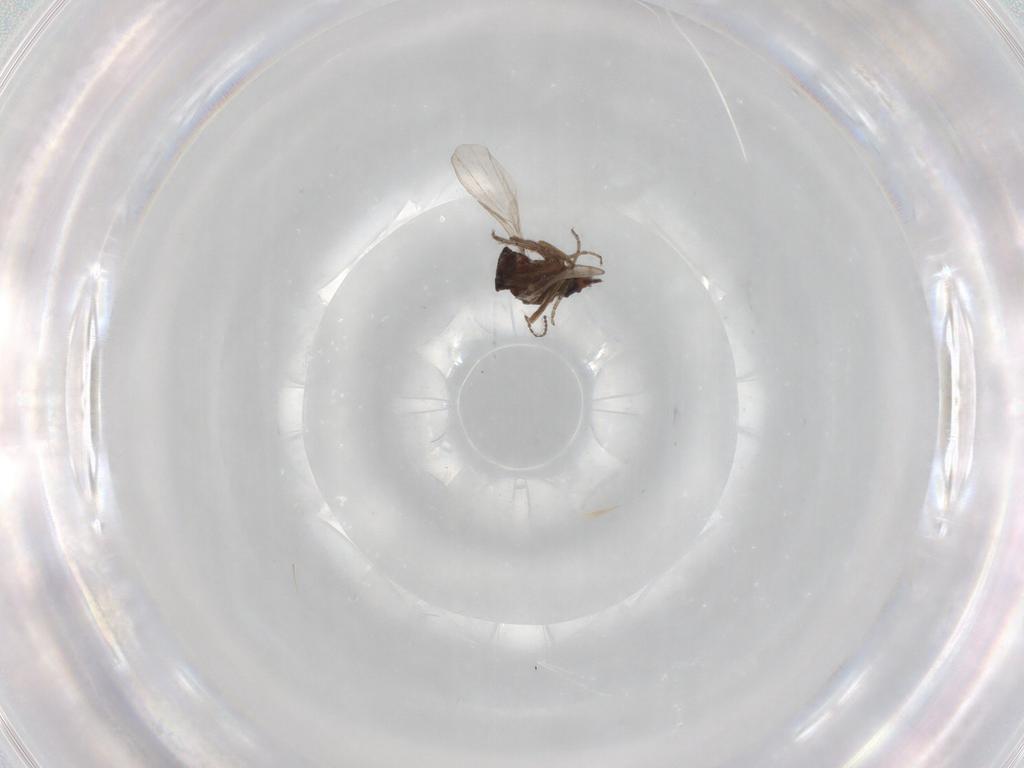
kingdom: Animalia
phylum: Arthropoda
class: Insecta
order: Diptera
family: Ceratopogonidae
